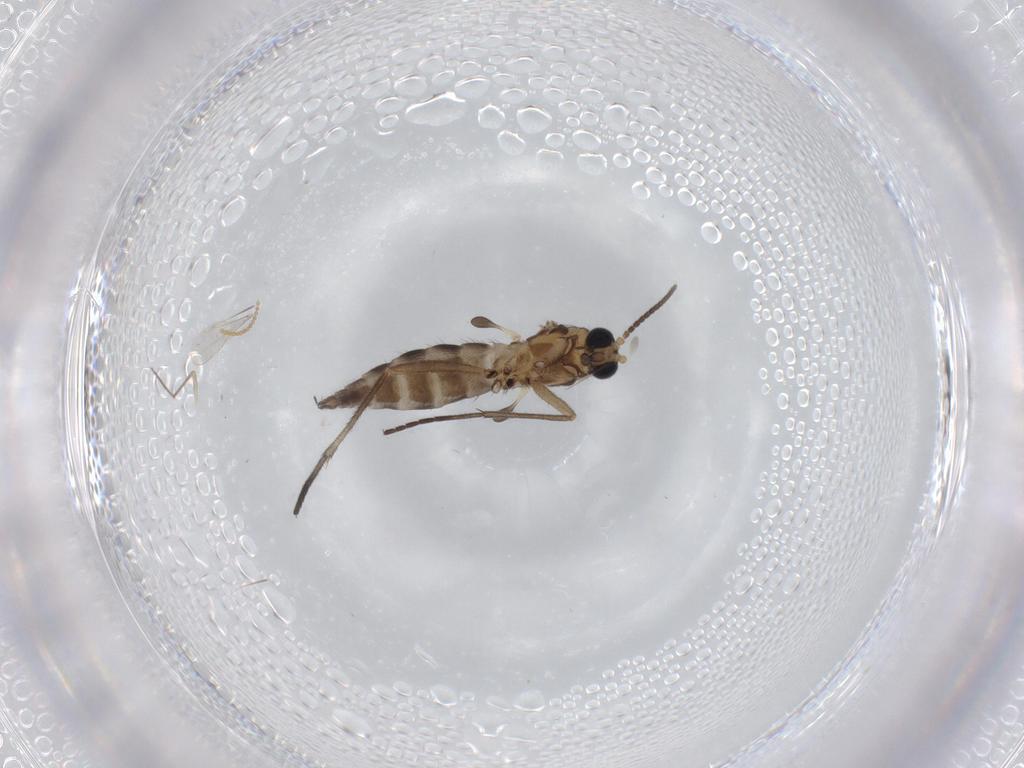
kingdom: Animalia
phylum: Arthropoda
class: Insecta
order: Diptera
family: Sciaridae
